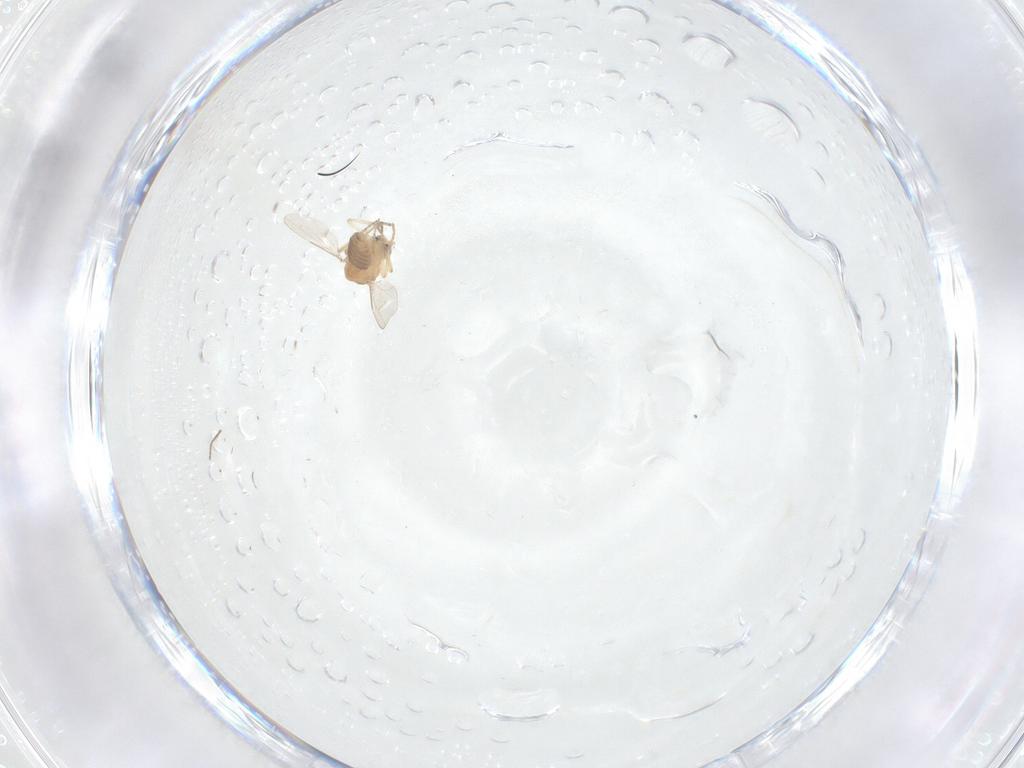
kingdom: Animalia
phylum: Arthropoda
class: Insecta
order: Diptera
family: Ceratopogonidae
